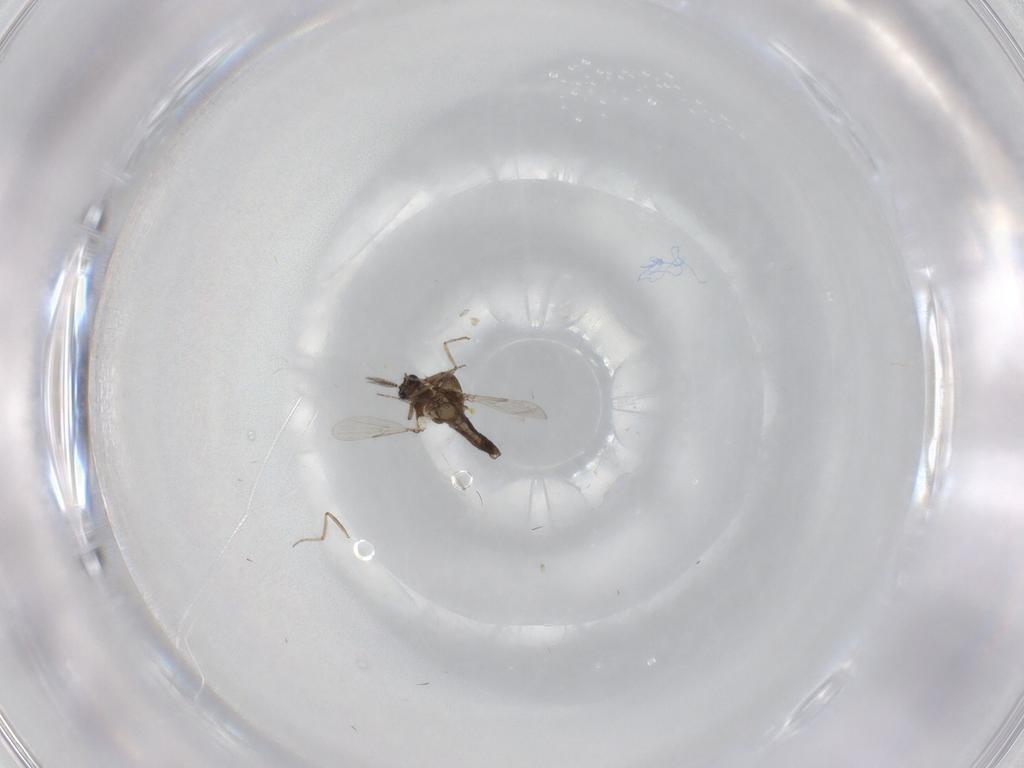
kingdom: Animalia
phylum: Arthropoda
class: Insecta
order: Diptera
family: Ceratopogonidae
